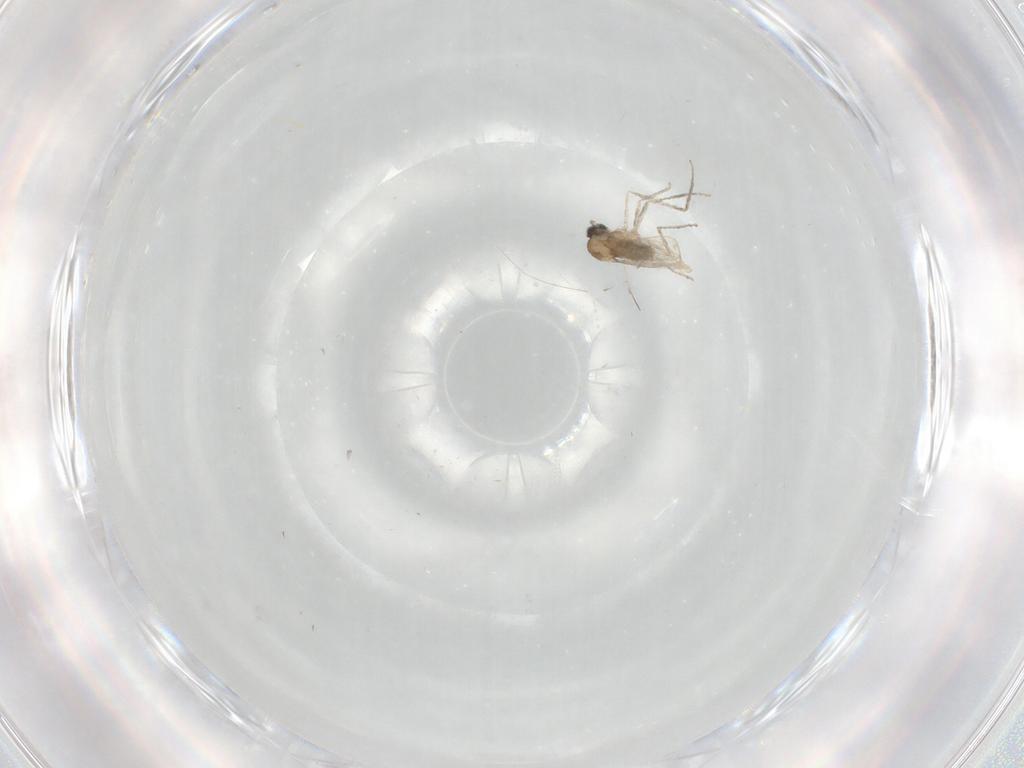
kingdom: Animalia
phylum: Arthropoda
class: Insecta
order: Diptera
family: Cecidomyiidae
